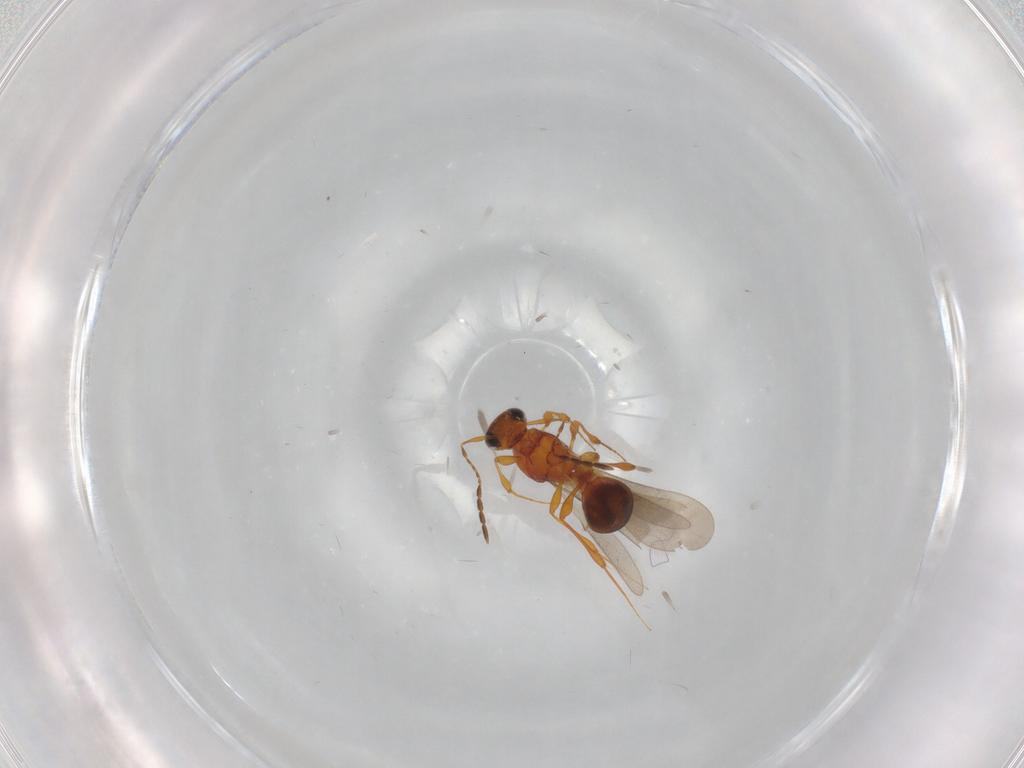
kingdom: Animalia
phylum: Arthropoda
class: Insecta
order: Hymenoptera
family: Platygastridae
